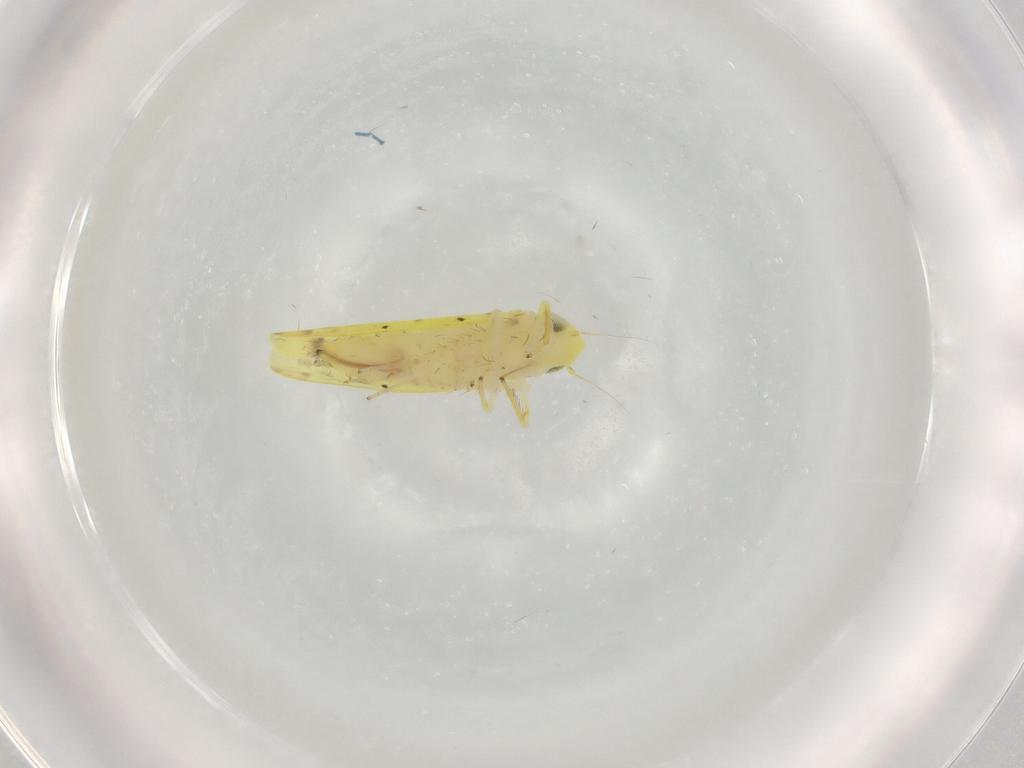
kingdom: Animalia
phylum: Arthropoda
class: Insecta
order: Hemiptera
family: Cicadellidae
